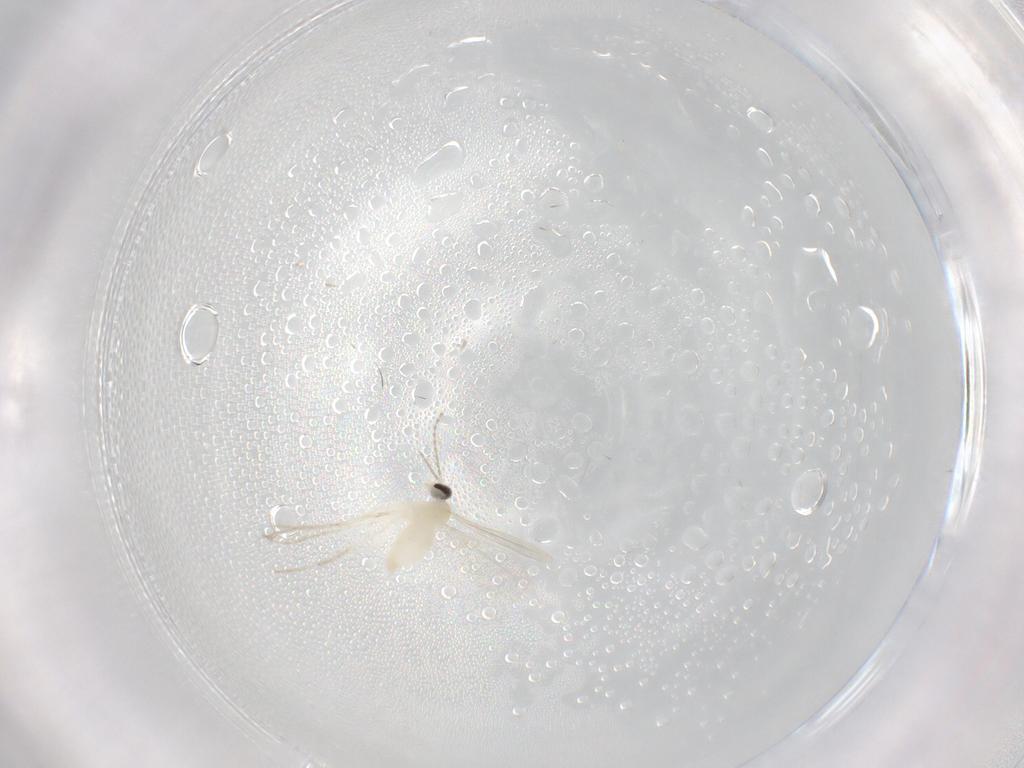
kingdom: Animalia
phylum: Arthropoda
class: Insecta
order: Diptera
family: Cecidomyiidae
